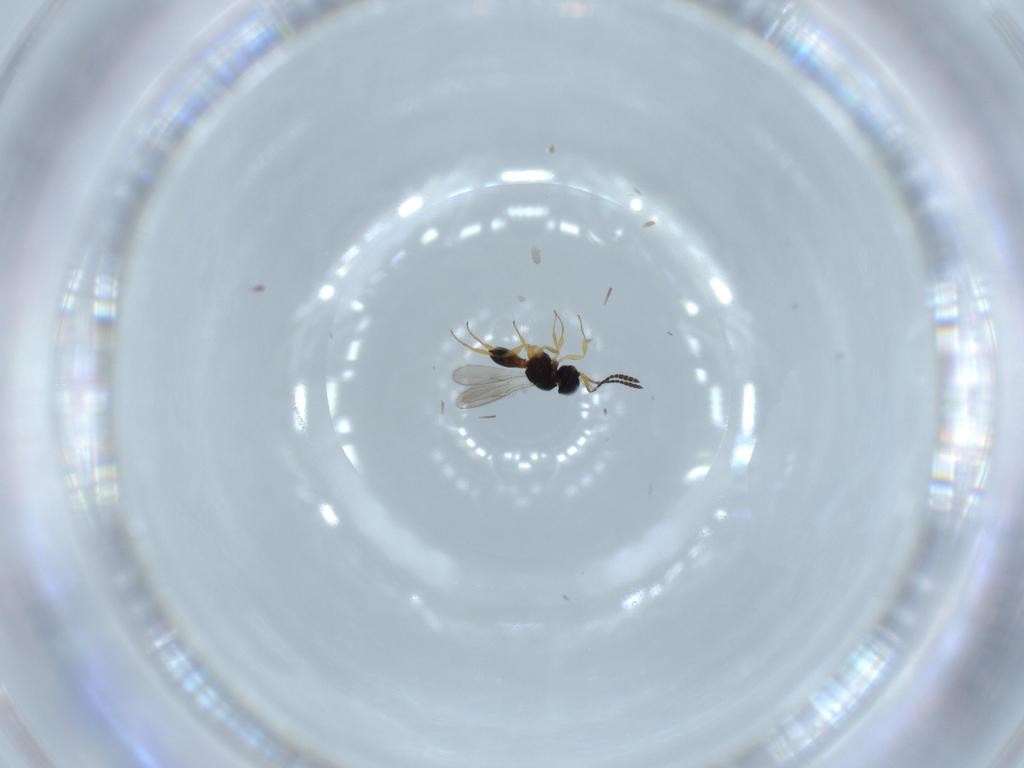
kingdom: Animalia
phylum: Arthropoda
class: Insecta
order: Hymenoptera
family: Scelionidae
